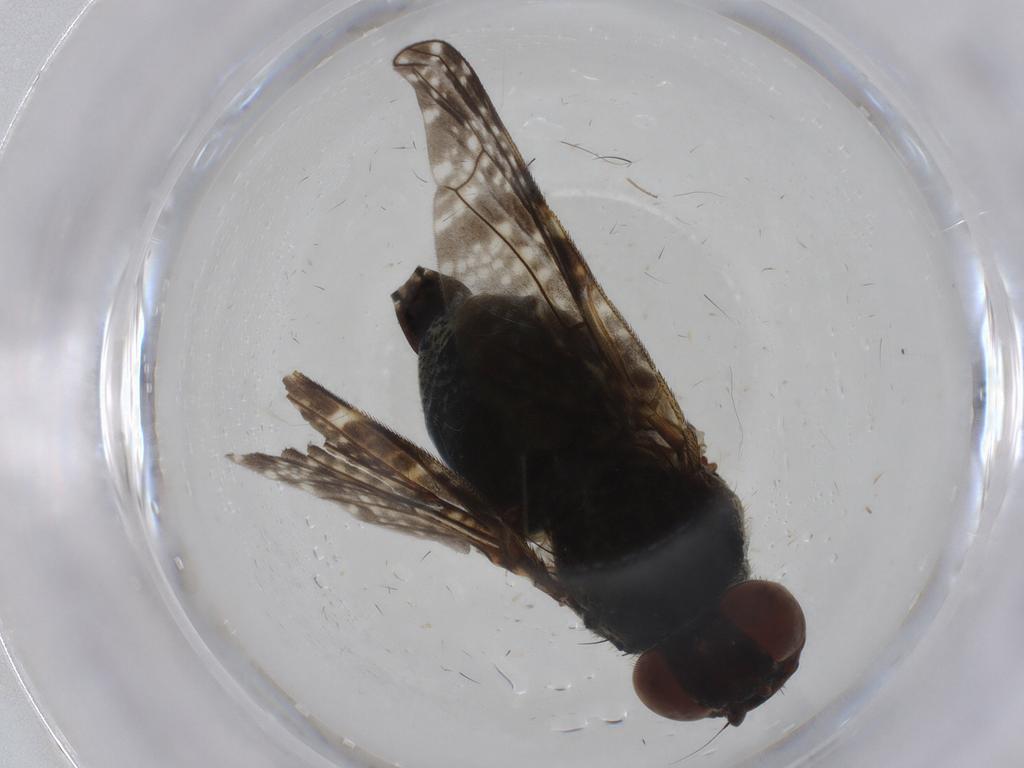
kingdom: Animalia
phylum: Arthropoda
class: Insecta
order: Diptera
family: Platystomatidae
